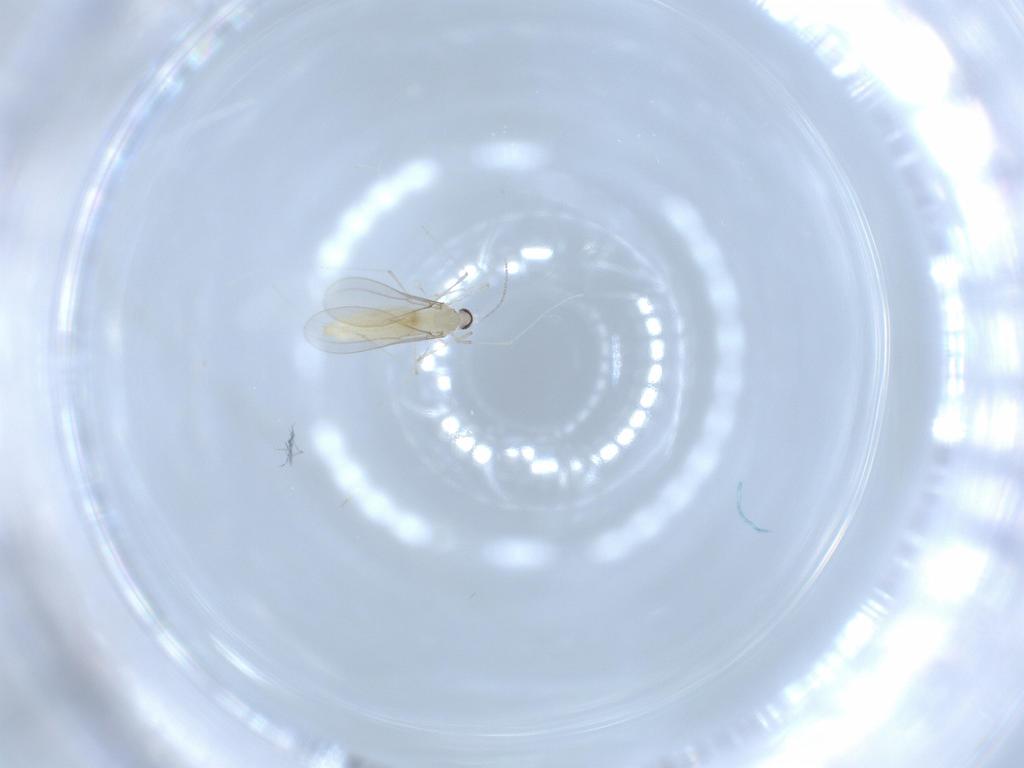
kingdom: Animalia
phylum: Arthropoda
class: Insecta
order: Diptera
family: Cecidomyiidae
